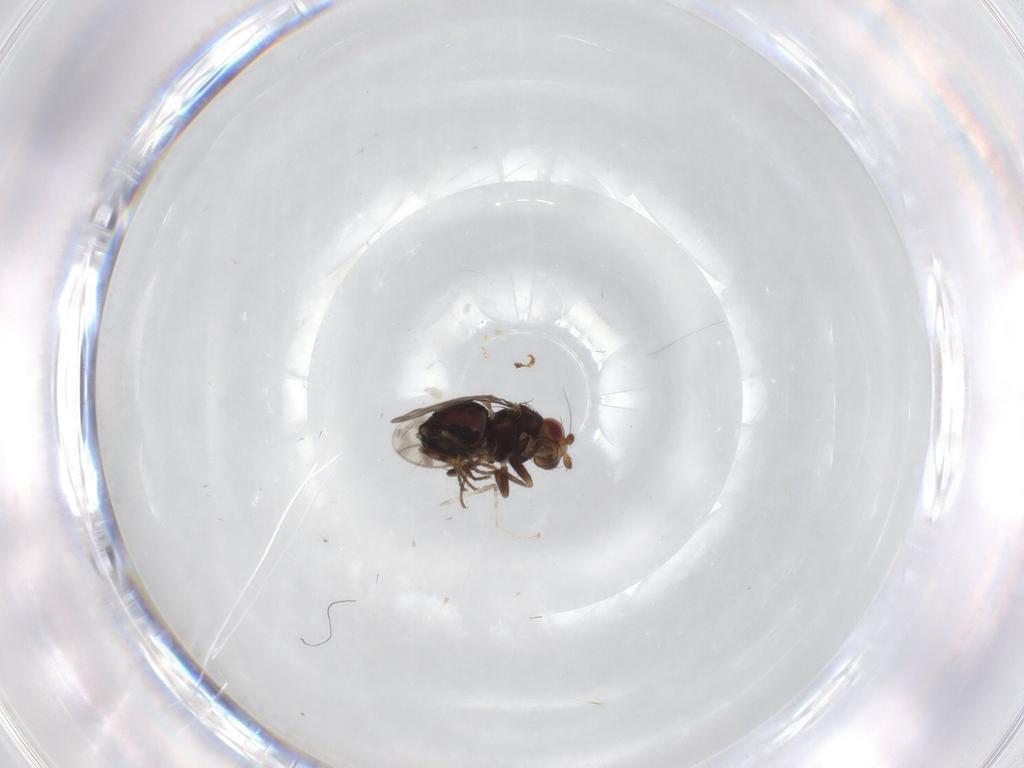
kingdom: Animalia
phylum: Arthropoda
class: Insecta
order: Diptera
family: Sphaeroceridae
